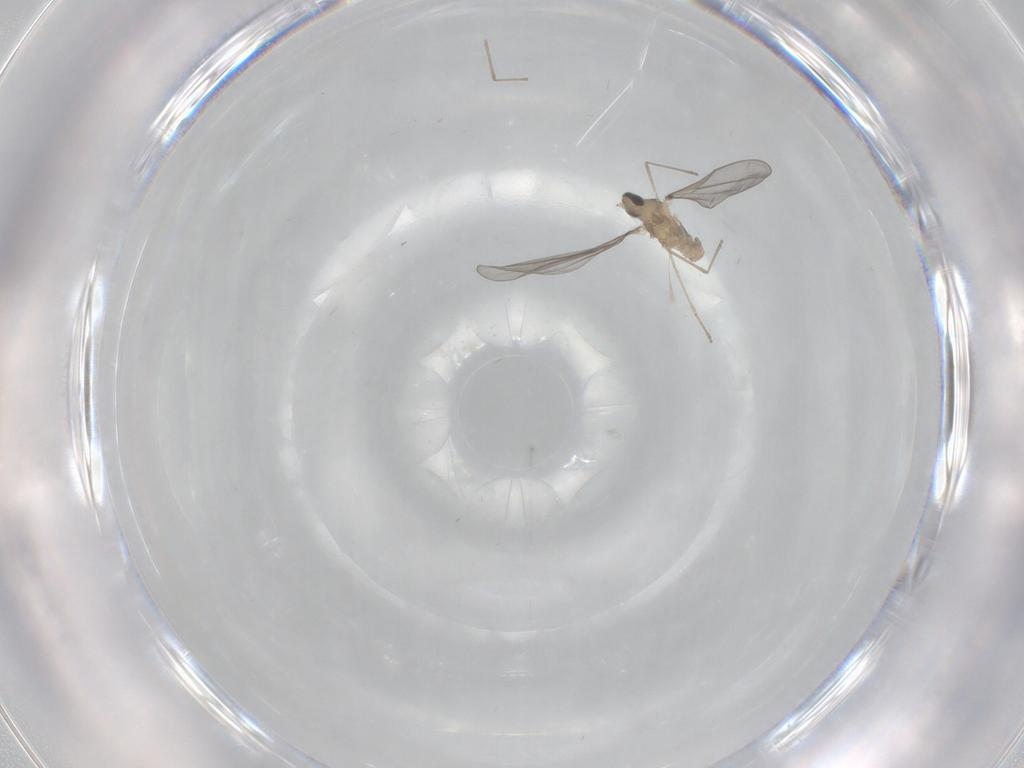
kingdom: Animalia
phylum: Arthropoda
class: Insecta
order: Diptera
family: Cecidomyiidae
